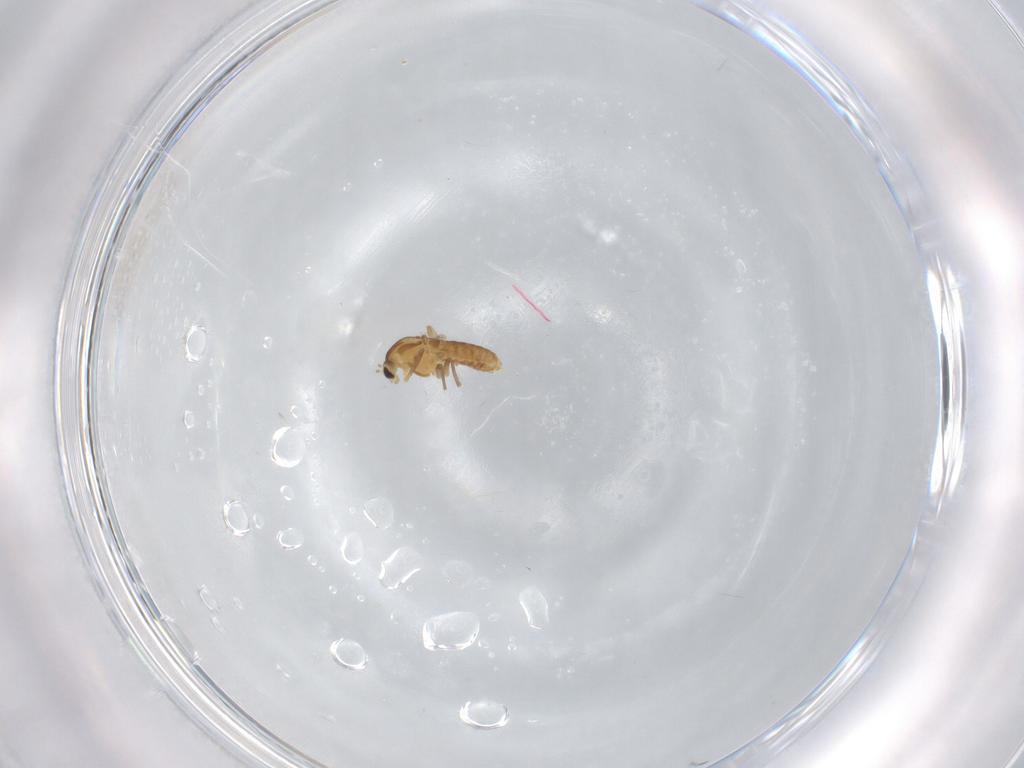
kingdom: Animalia
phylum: Arthropoda
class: Insecta
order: Diptera
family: Chironomidae
